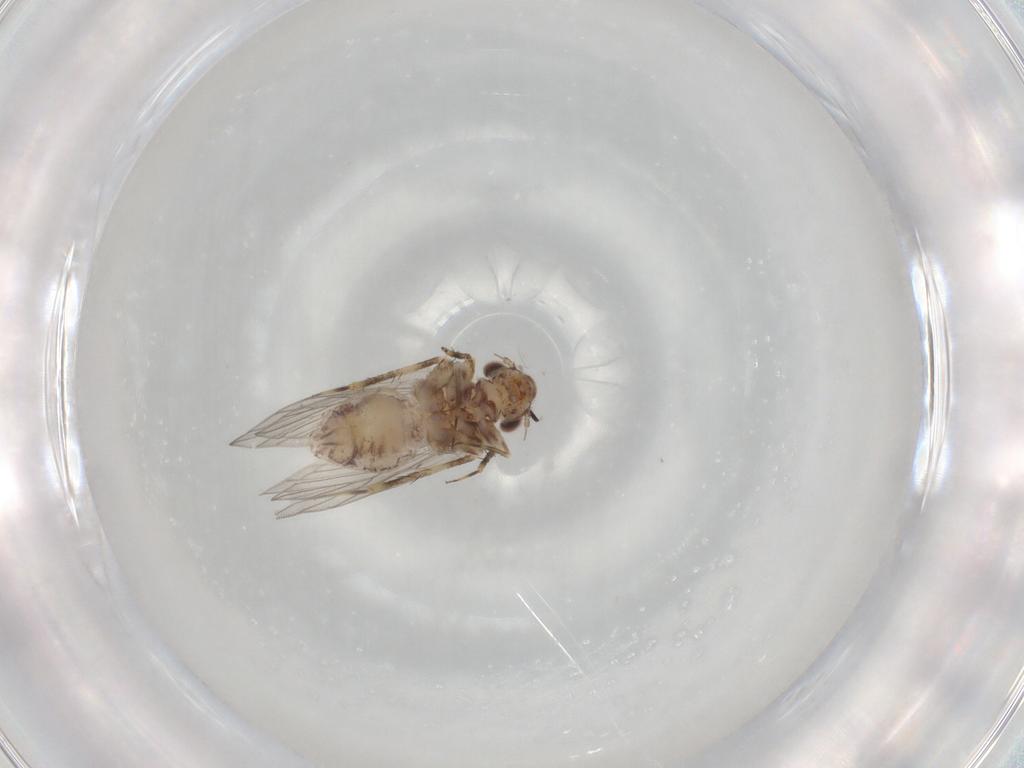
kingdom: Animalia
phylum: Arthropoda
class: Insecta
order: Psocodea
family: Lepidopsocidae
